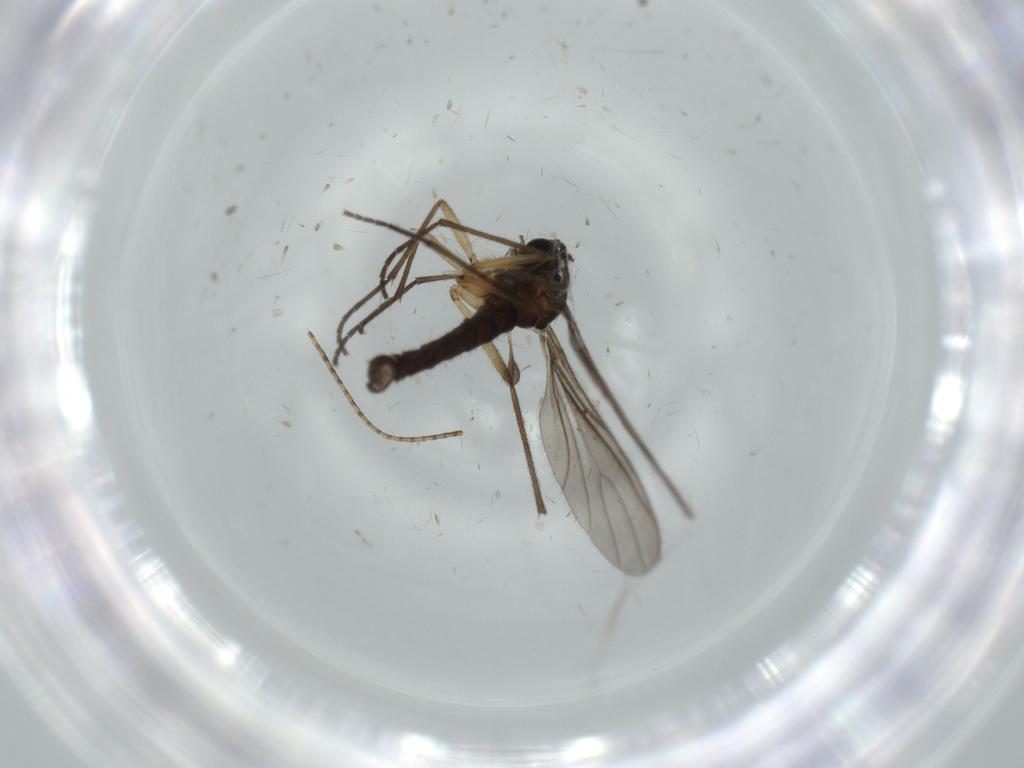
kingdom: Animalia
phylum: Arthropoda
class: Insecta
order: Diptera
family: Sciaridae
